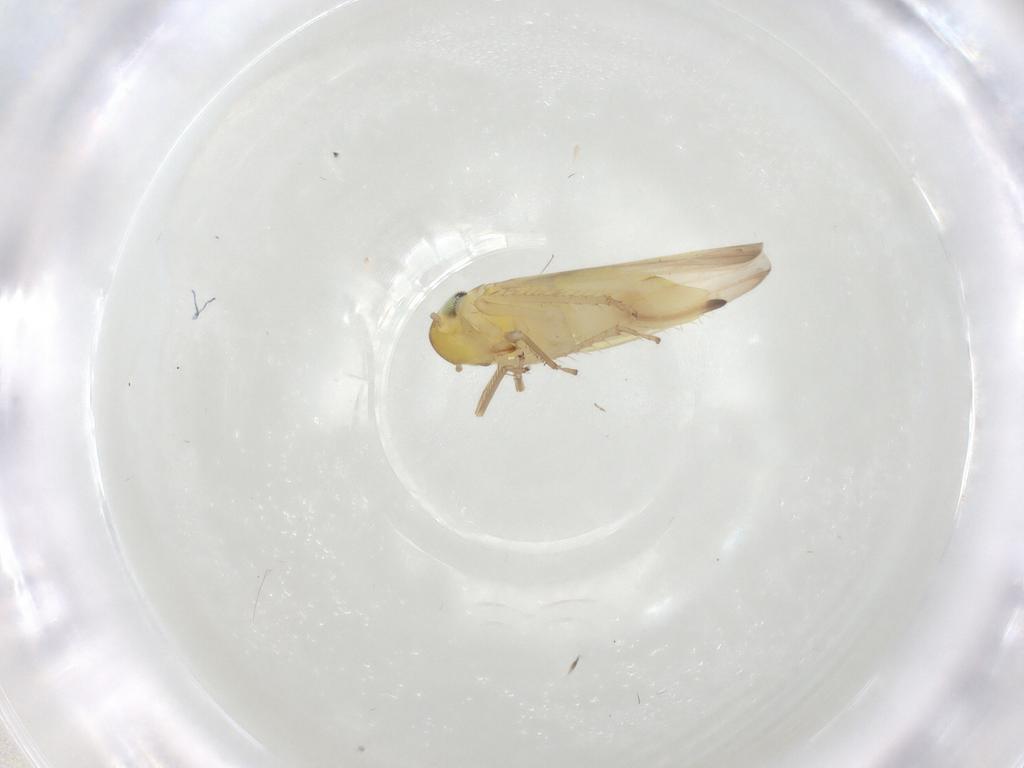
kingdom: Animalia
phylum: Arthropoda
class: Insecta
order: Hemiptera
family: Cicadellidae
